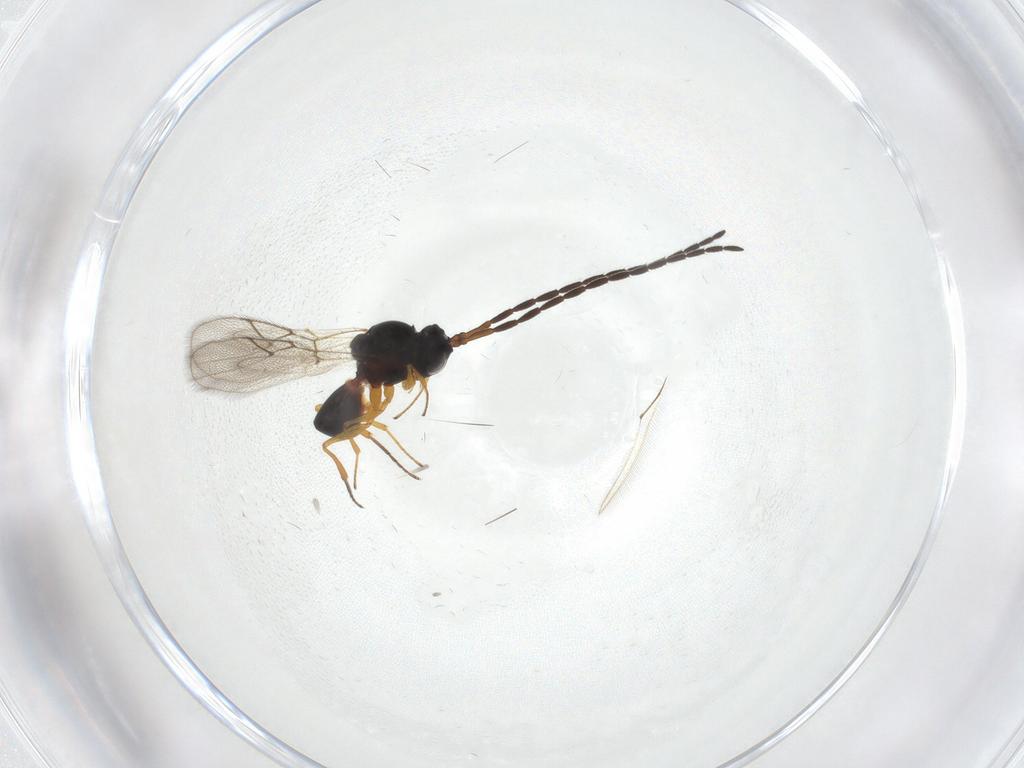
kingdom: Animalia
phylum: Arthropoda
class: Insecta
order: Hymenoptera
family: Figitidae
